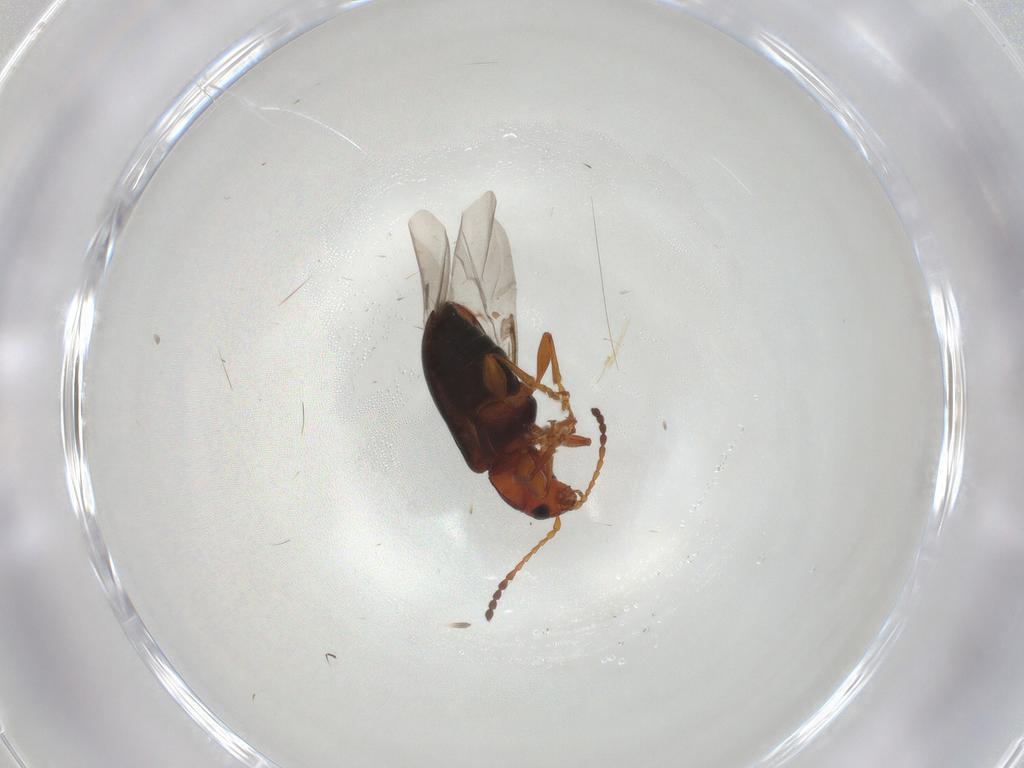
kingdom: Animalia
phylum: Arthropoda
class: Insecta
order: Coleoptera
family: Chrysomelidae
